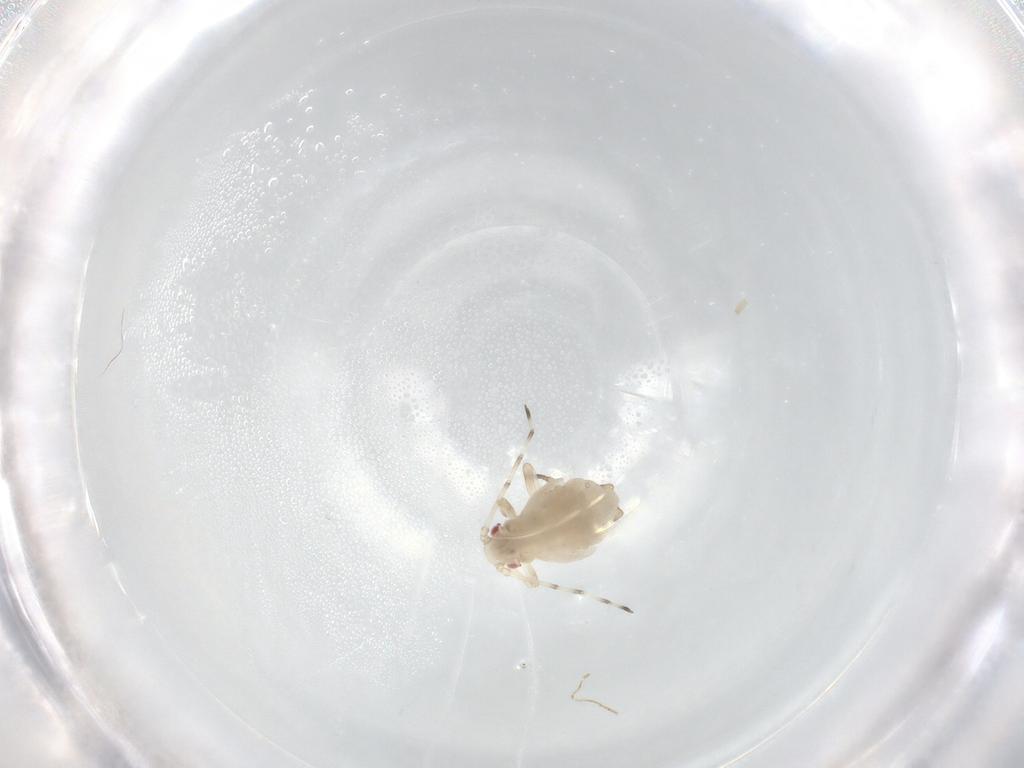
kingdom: Animalia
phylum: Arthropoda
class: Insecta
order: Hemiptera
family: Aphididae
